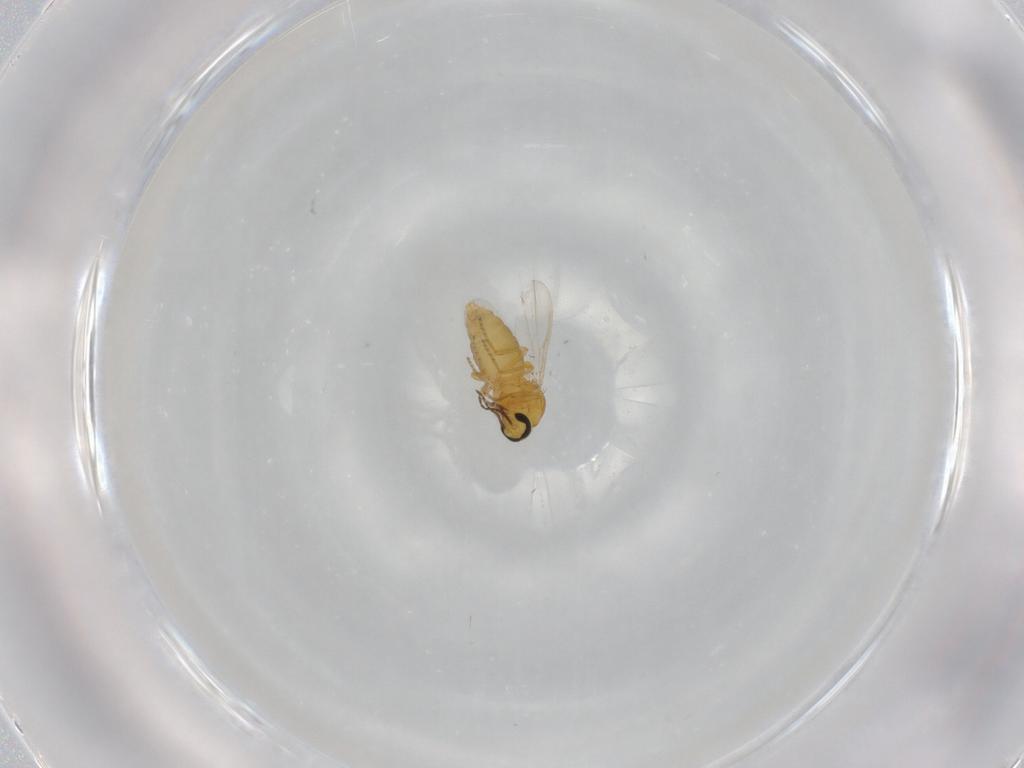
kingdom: Animalia
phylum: Arthropoda
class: Insecta
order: Diptera
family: Ceratopogonidae
